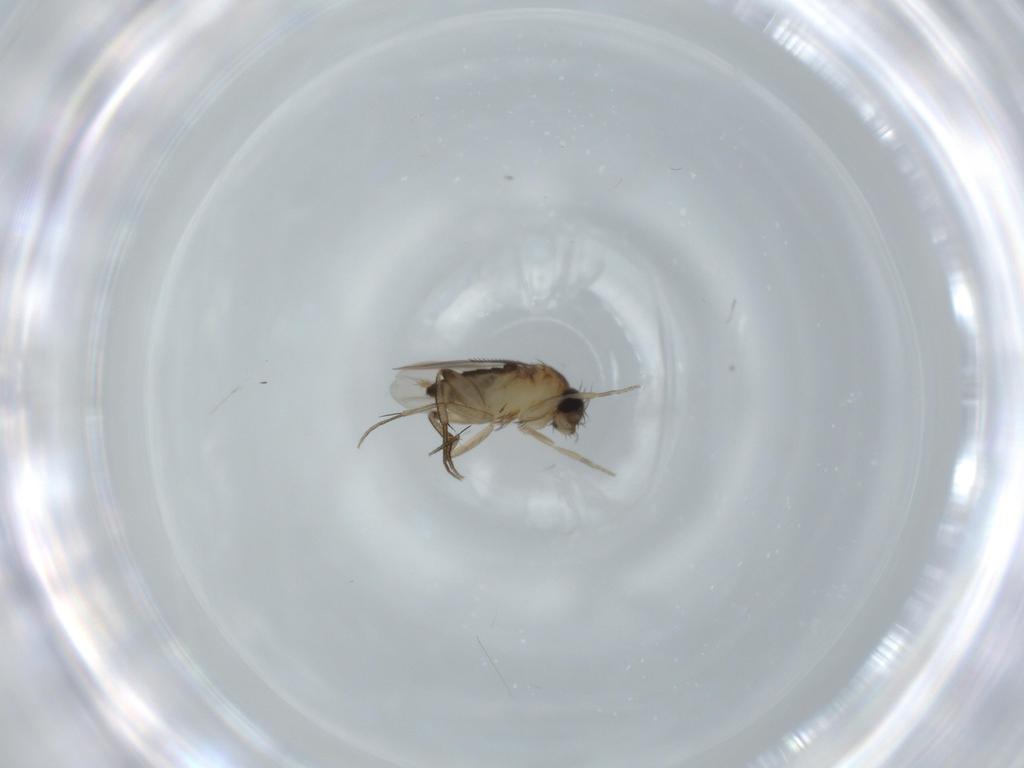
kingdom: Animalia
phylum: Arthropoda
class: Insecta
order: Diptera
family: Phoridae
